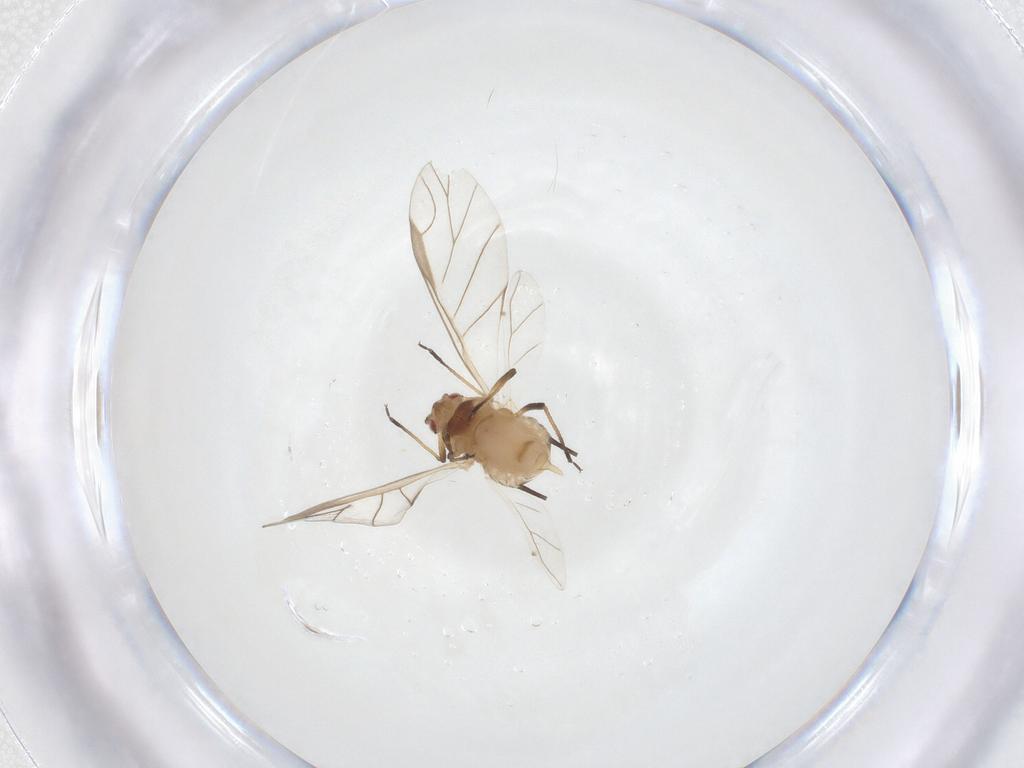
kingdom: Animalia
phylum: Arthropoda
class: Insecta
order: Hemiptera
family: Aphididae
